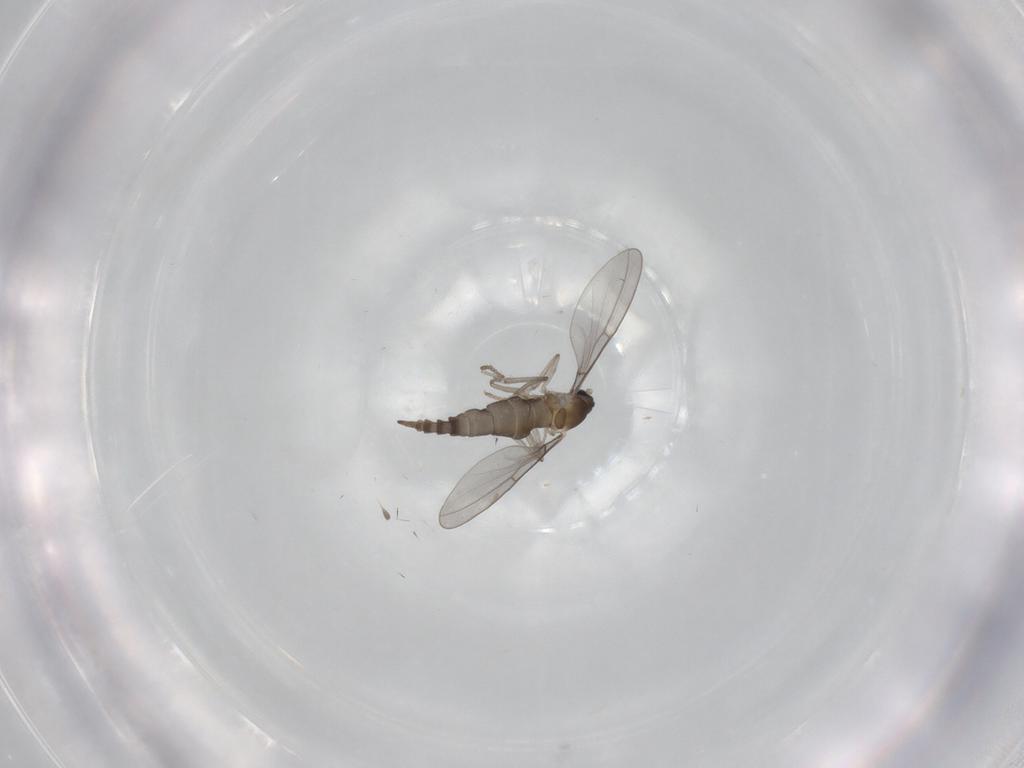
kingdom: Animalia
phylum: Arthropoda
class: Insecta
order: Diptera
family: Cecidomyiidae
